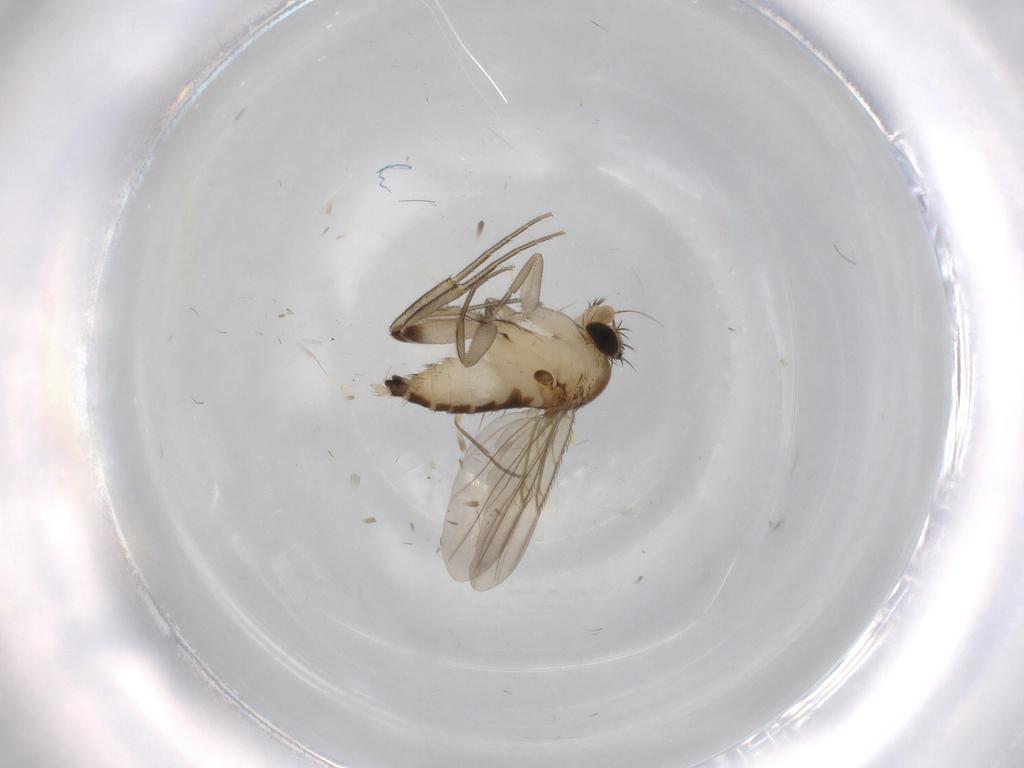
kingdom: Animalia
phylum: Arthropoda
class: Insecta
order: Diptera
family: Phoridae
